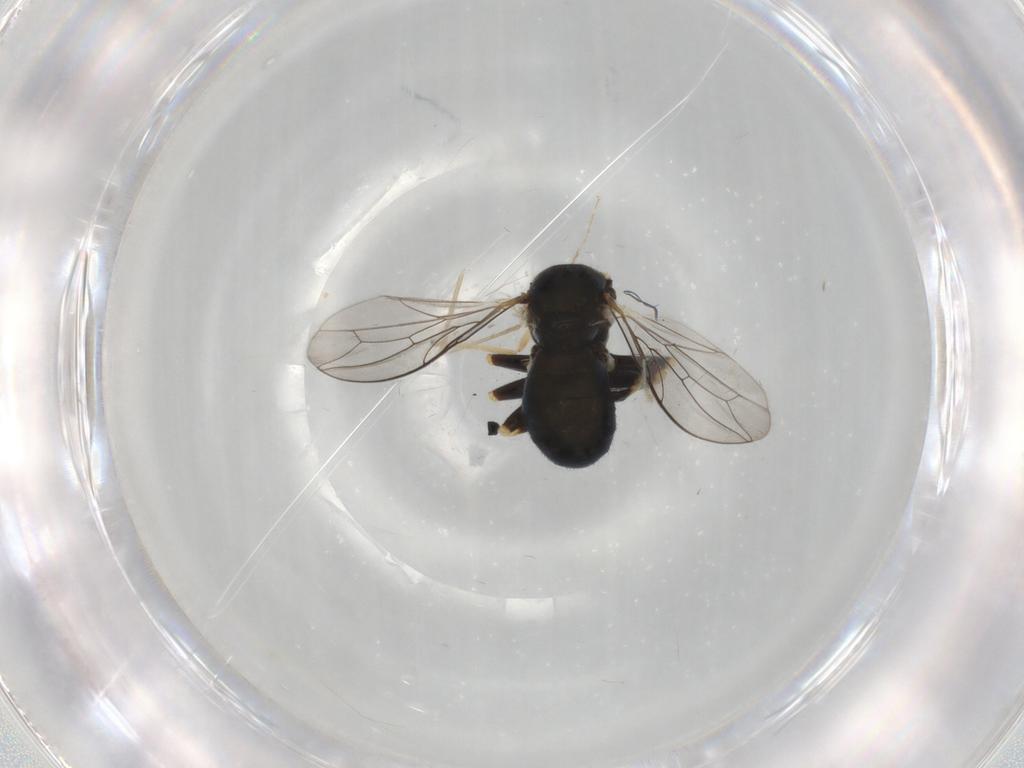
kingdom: Animalia
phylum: Arthropoda
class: Insecta
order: Diptera
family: Pipunculidae
